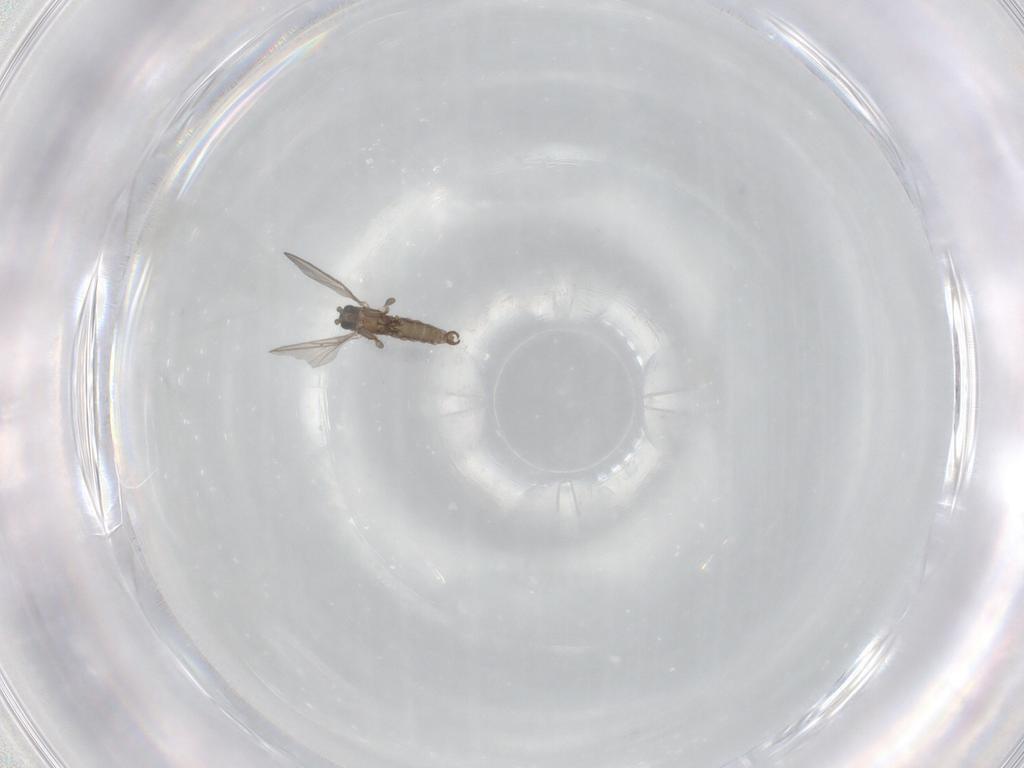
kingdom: Animalia
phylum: Arthropoda
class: Insecta
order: Diptera
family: Sciaridae
